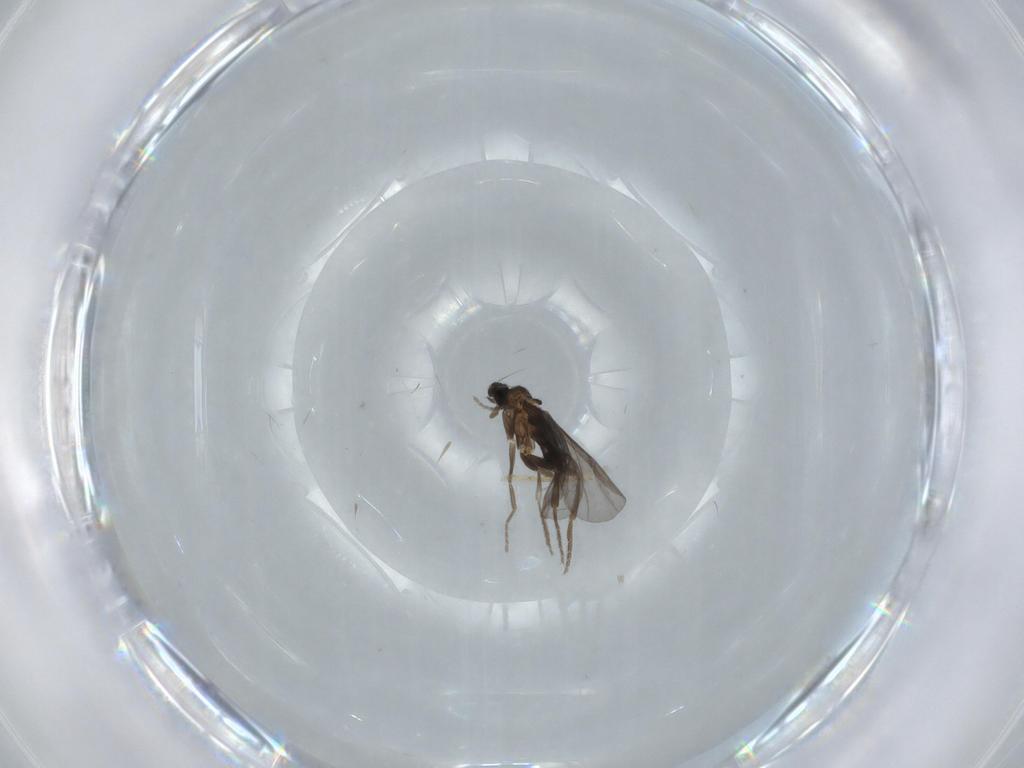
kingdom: Animalia
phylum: Arthropoda
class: Insecta
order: Diptera
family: Phoridae
